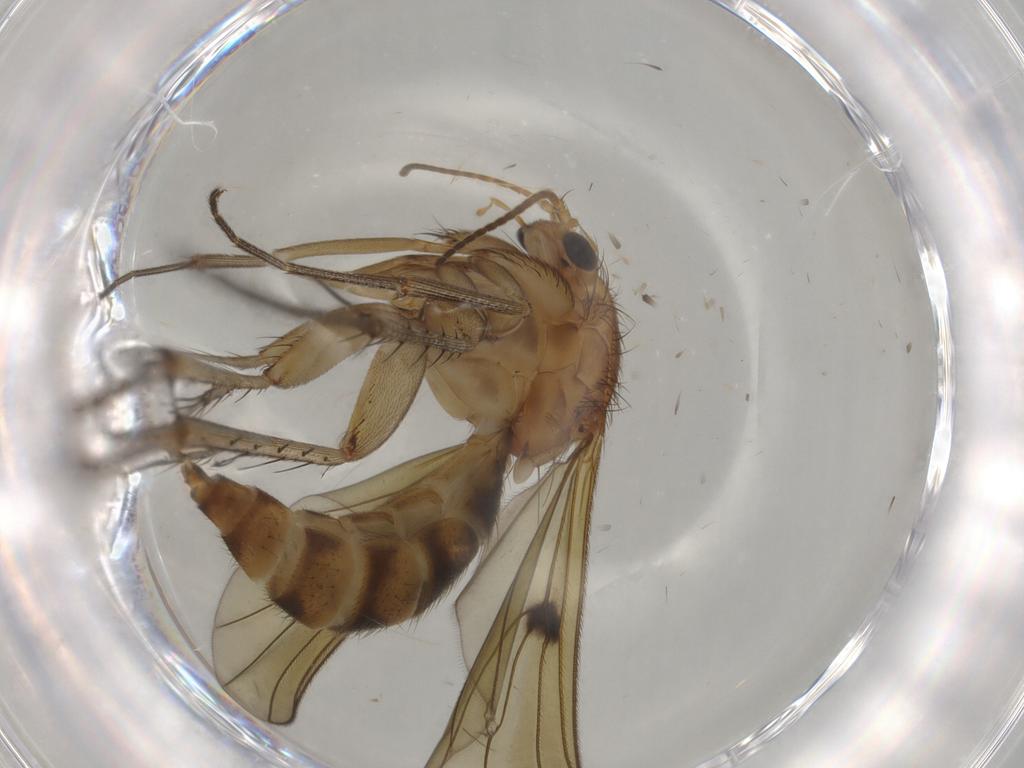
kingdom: Animalia
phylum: Arthropoda
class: Insecta
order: Diptera
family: Mycetophilidae
